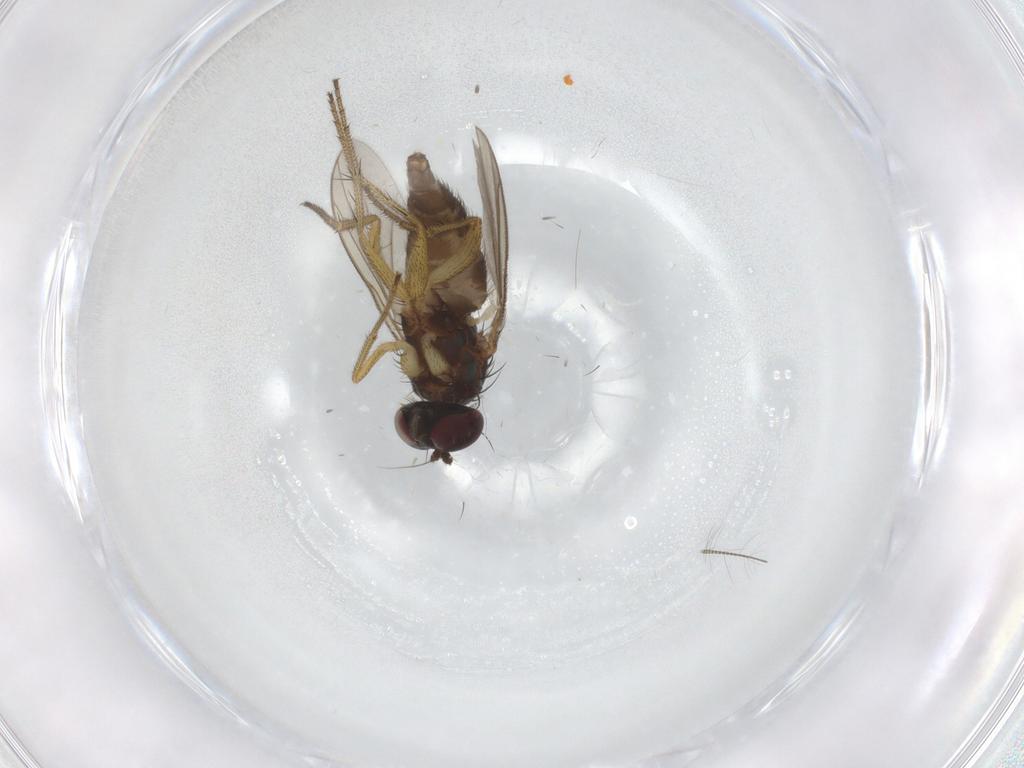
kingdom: Animalia
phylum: Arthropoda
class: Insecta
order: Diptera
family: Dolichopodidae
